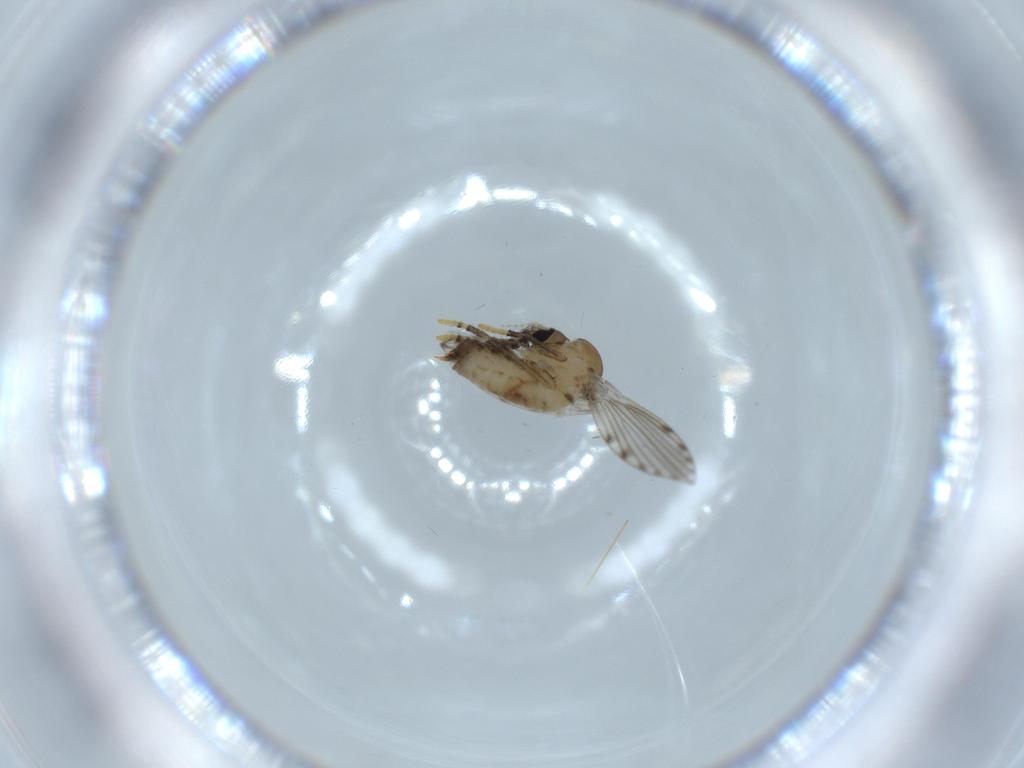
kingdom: Animalia
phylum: Arthropoda
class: Insecta
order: Diptera
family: Psychodidae
